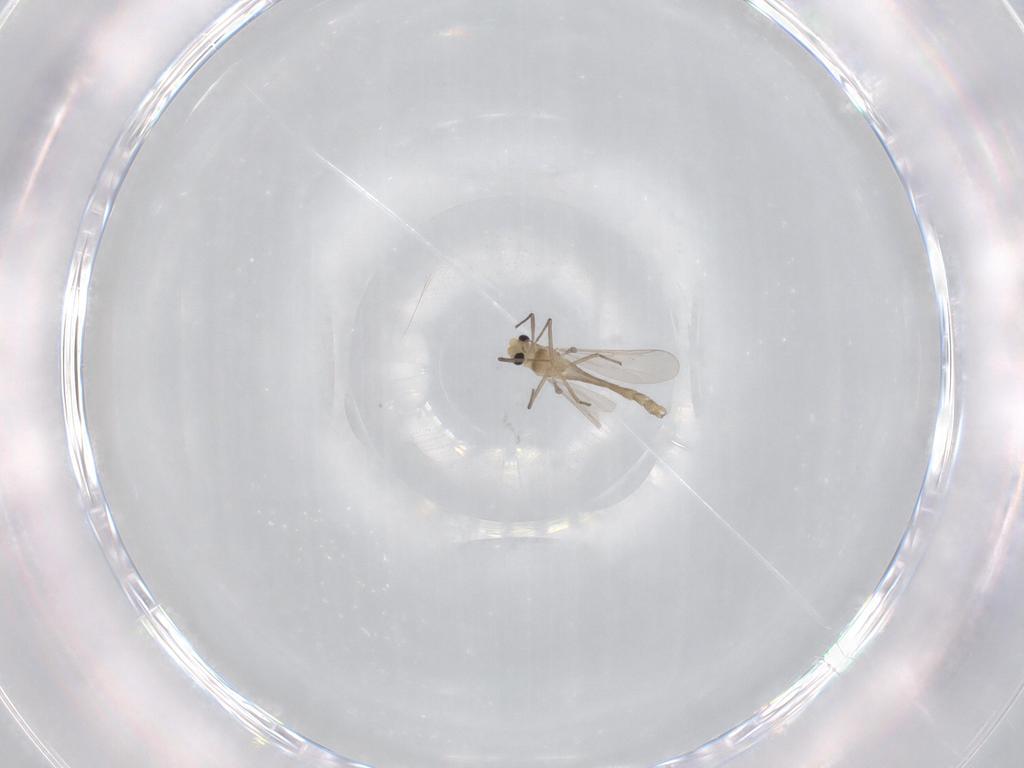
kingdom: Animalia
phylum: Arthropoda
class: Insecta
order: Diptera
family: Chironomidae
